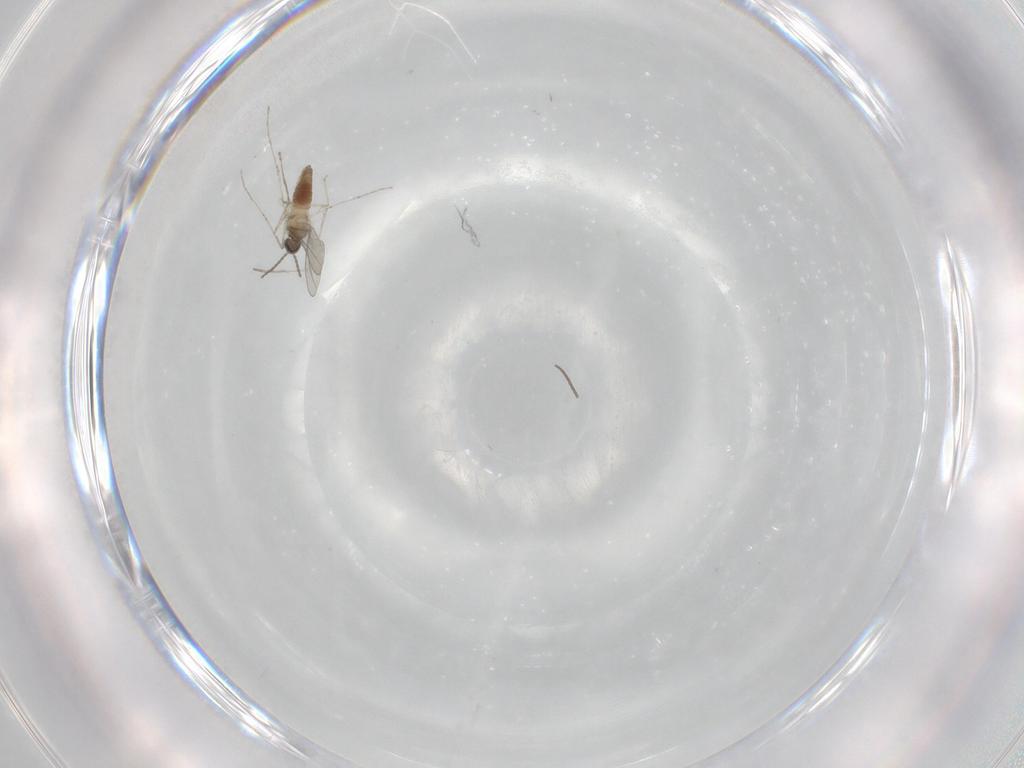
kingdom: Animalia
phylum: Arthropoda
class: Insecta
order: Diptera
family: Cecidomyiidae
